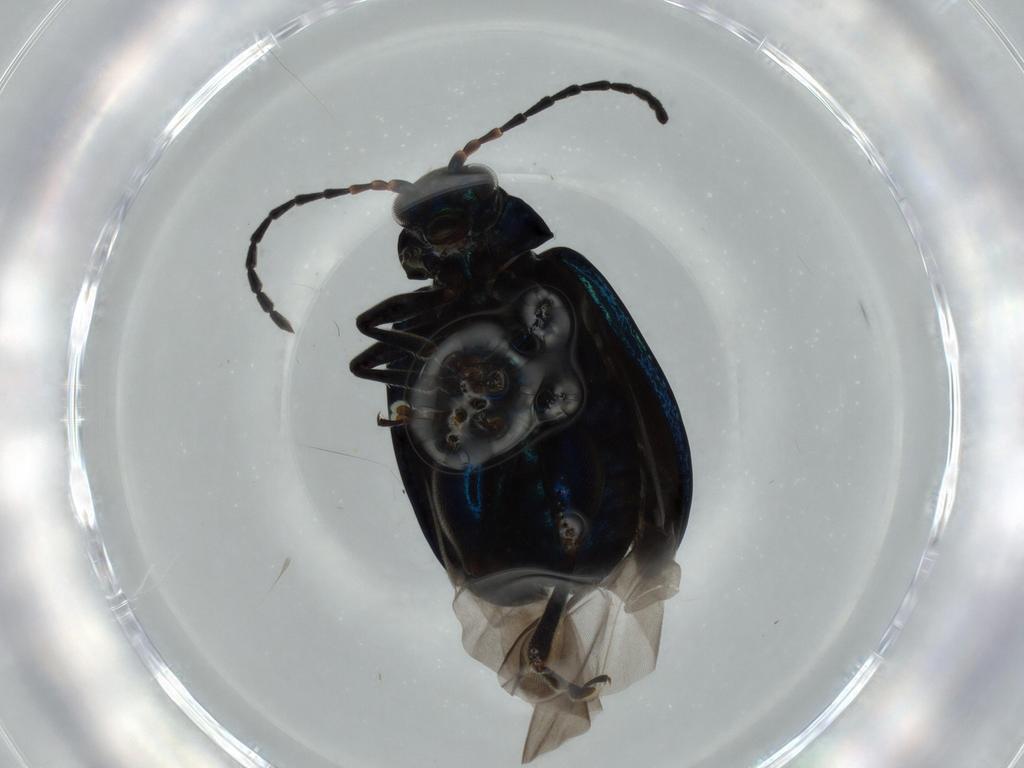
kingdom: Animalia
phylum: Arthropoda
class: Insecta
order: Coleoptera
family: Chrysomelidae
